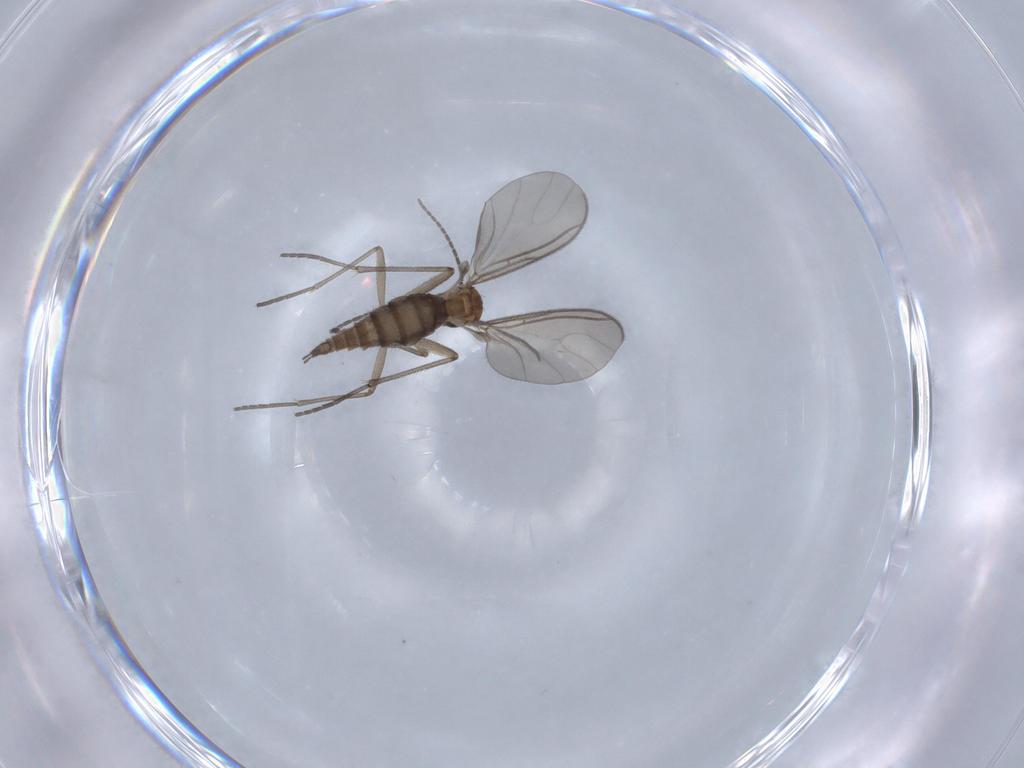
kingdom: Animalia
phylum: Arthropoda
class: Insecta
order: Diptera
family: Sciaridae
